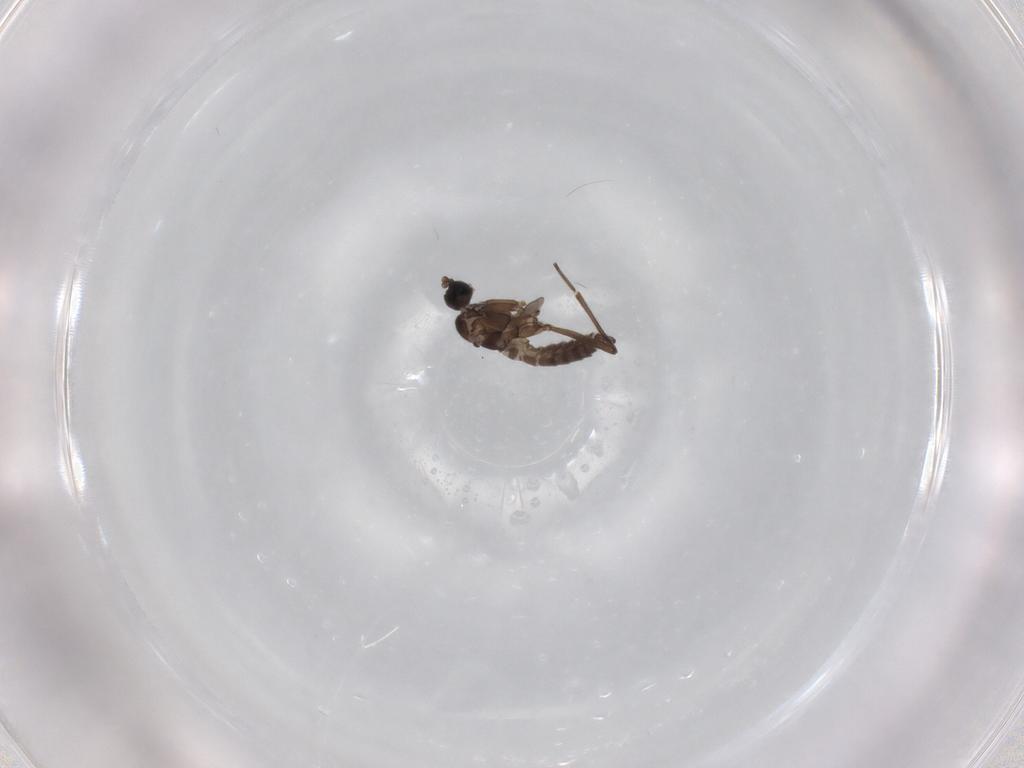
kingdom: Animalia
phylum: Arthropoda
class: Insecta
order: Diptera
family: Sciaridae
